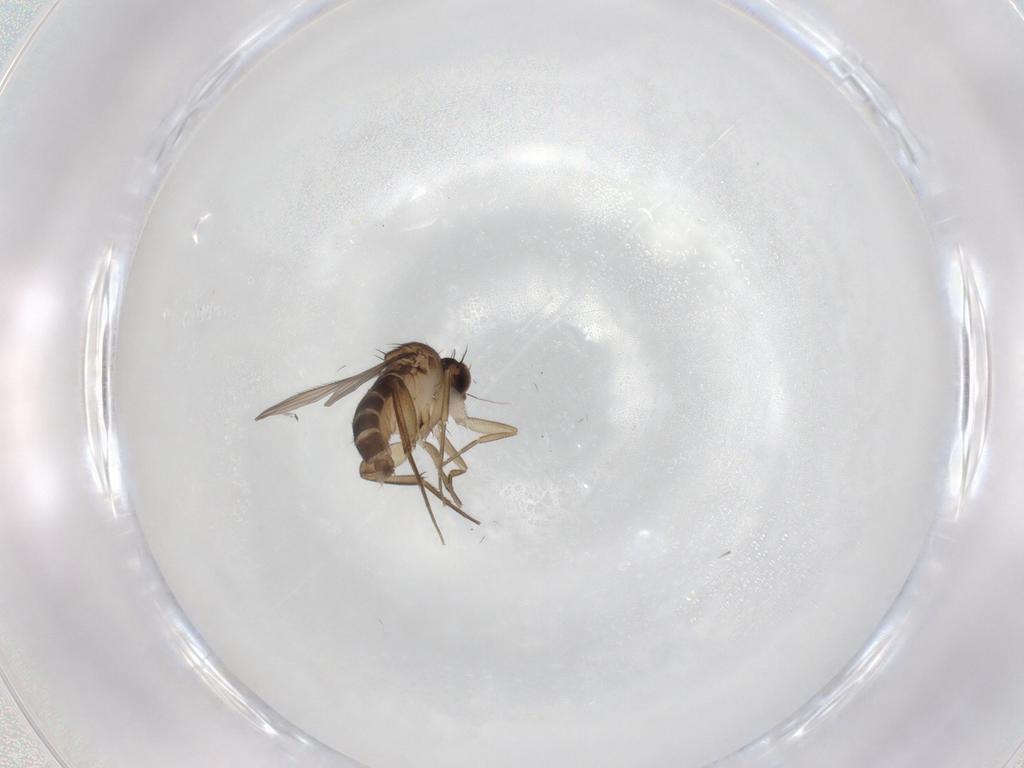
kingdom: Animalia
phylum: Arthropoda
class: Insecta
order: Diptera
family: Phoridae
